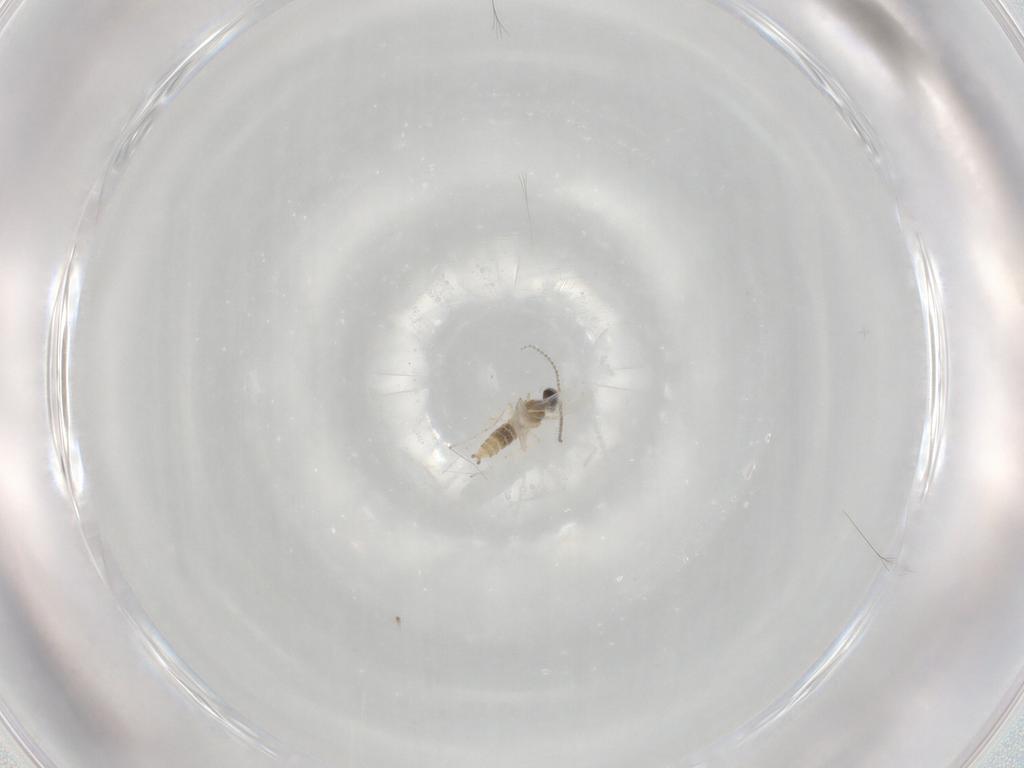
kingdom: Animalia
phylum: Arthropoda
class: Insecta
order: Diptera
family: Cecidomyiidae
